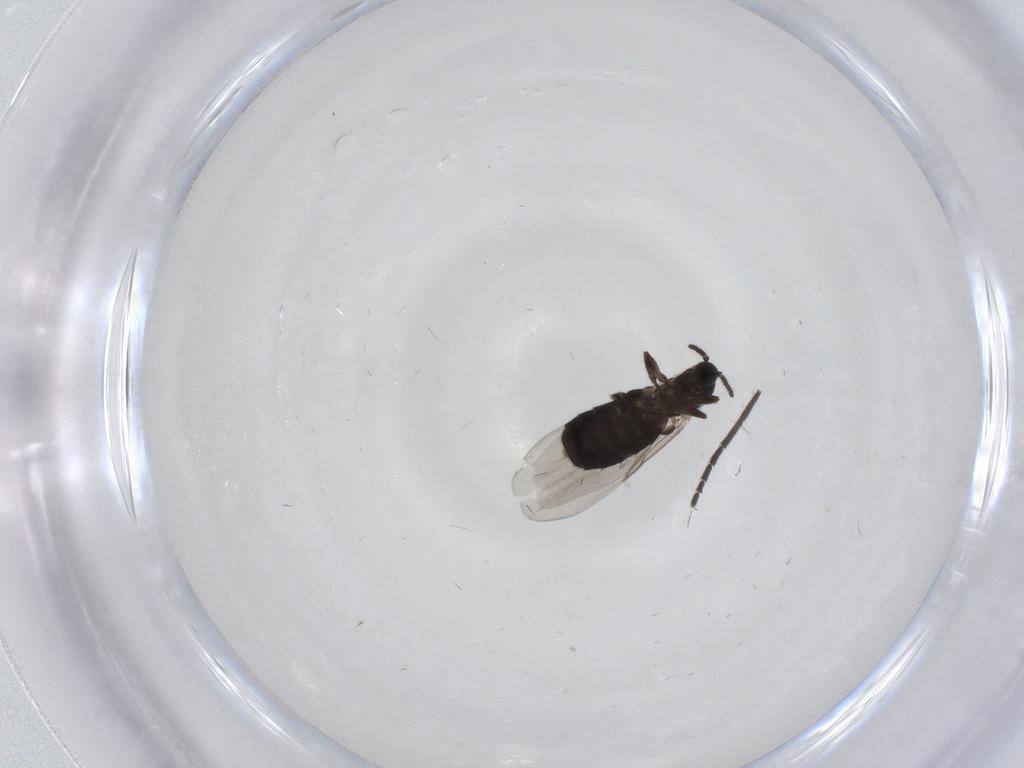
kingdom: Animalia
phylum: Arthropoda
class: Insecta
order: Diptera
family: Scatopsidae
